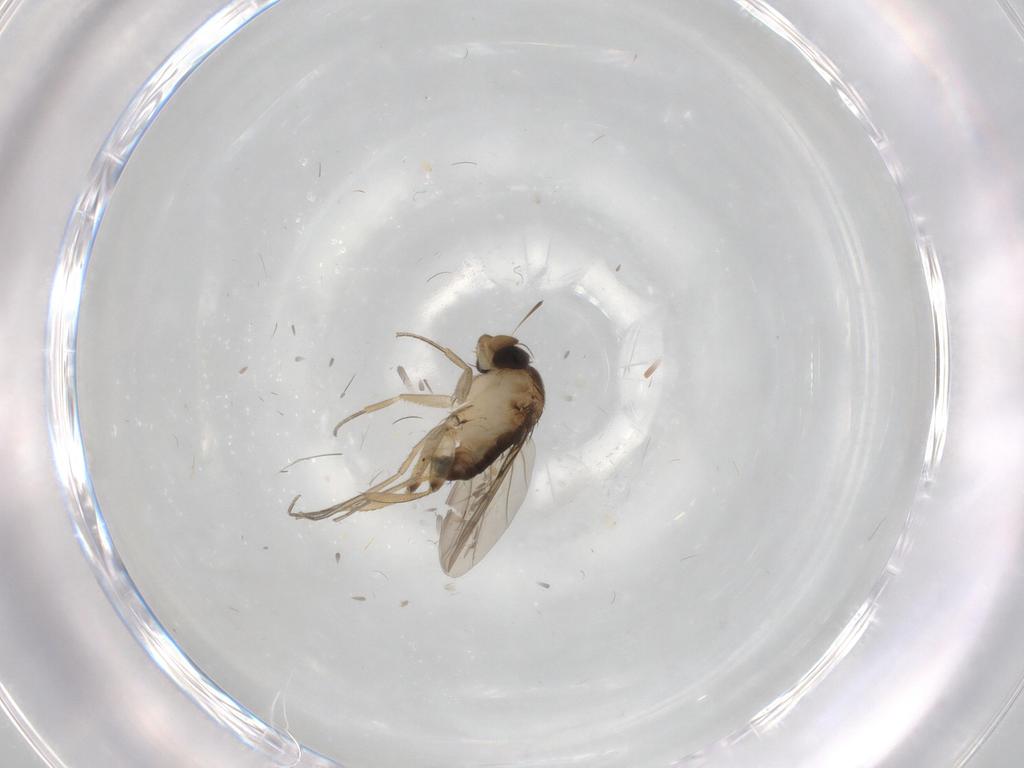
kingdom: Animalia
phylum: Arthropoda
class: Insecta
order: Diptera
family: Phoridae
